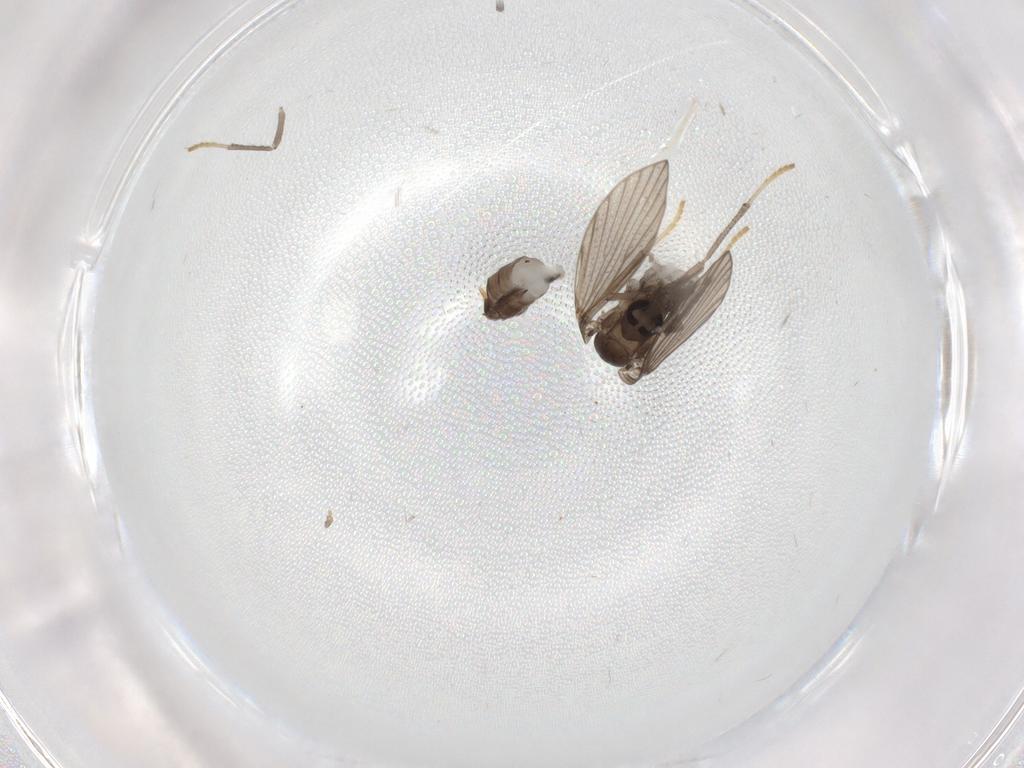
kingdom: Animalia
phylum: Arthropoda
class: Insecta
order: Diptera
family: Psychodidae
